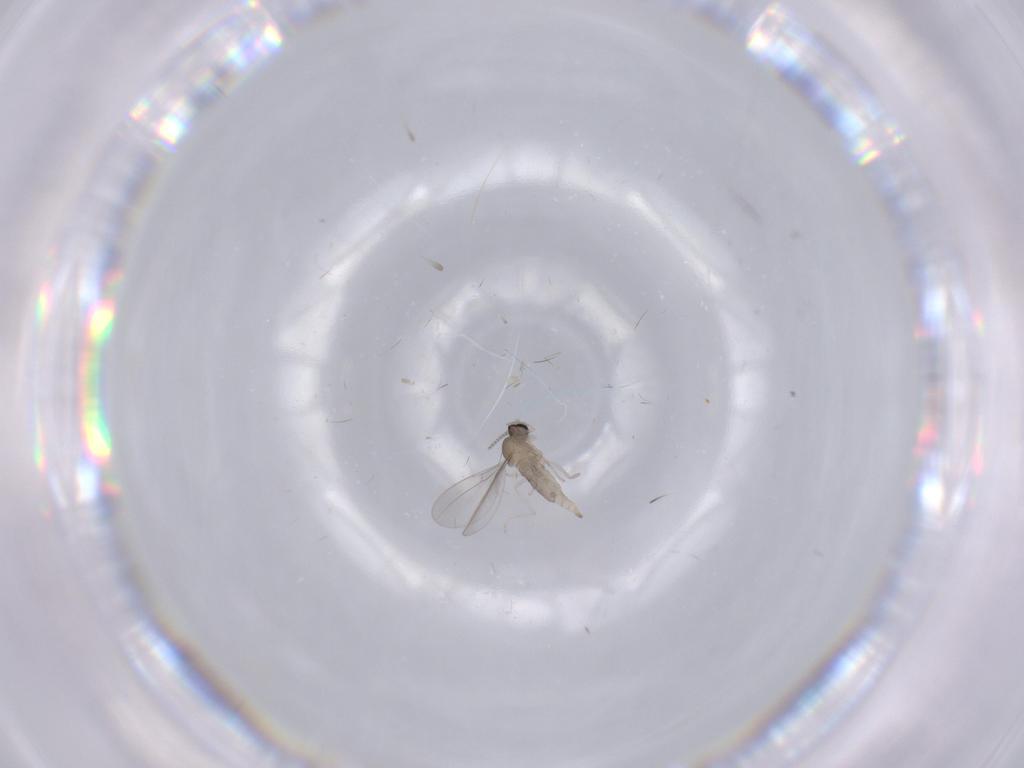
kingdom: Animalia
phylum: Arthropoda
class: Insecta
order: Diptera
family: Cecidomyiidae
